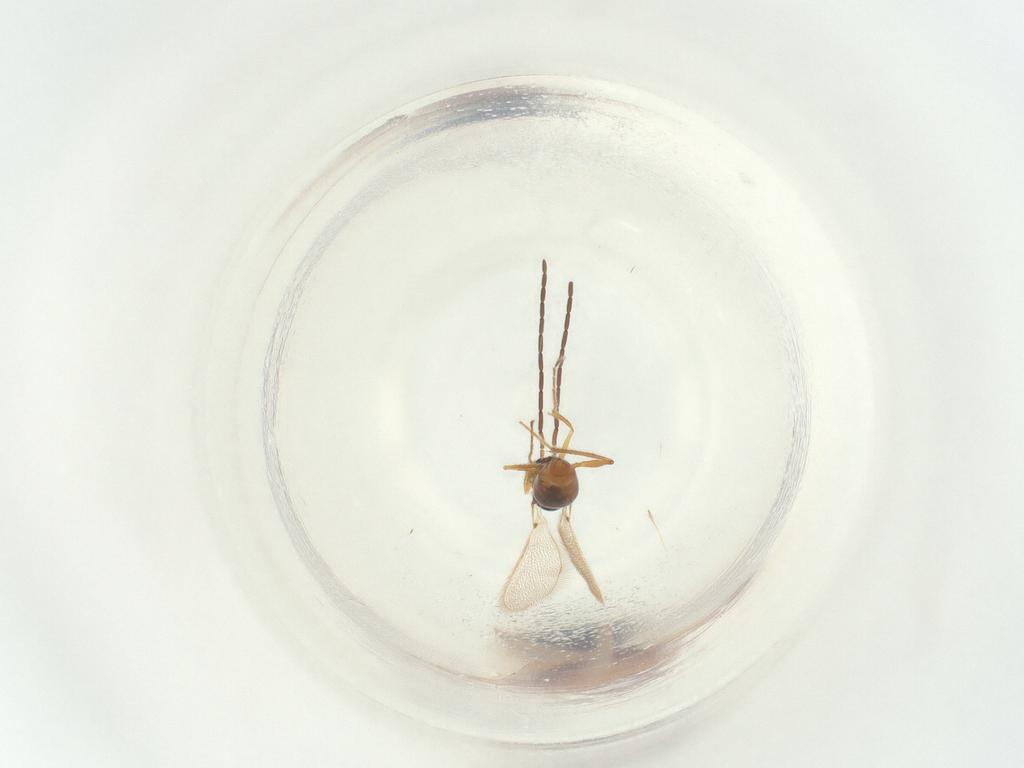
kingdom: Animalia
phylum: Arthropoda
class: Insecta
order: Hymenoptera
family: Mymaridae
